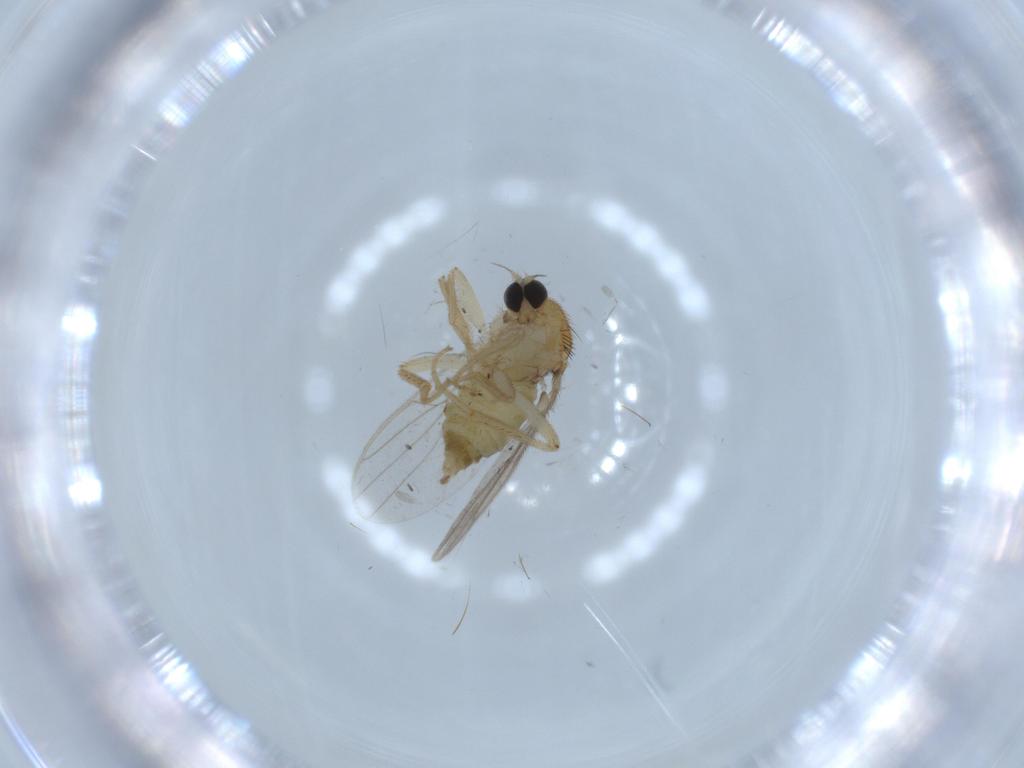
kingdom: Animalia
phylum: Arthropoda
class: Insecta
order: Diptera
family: Hybotidae
